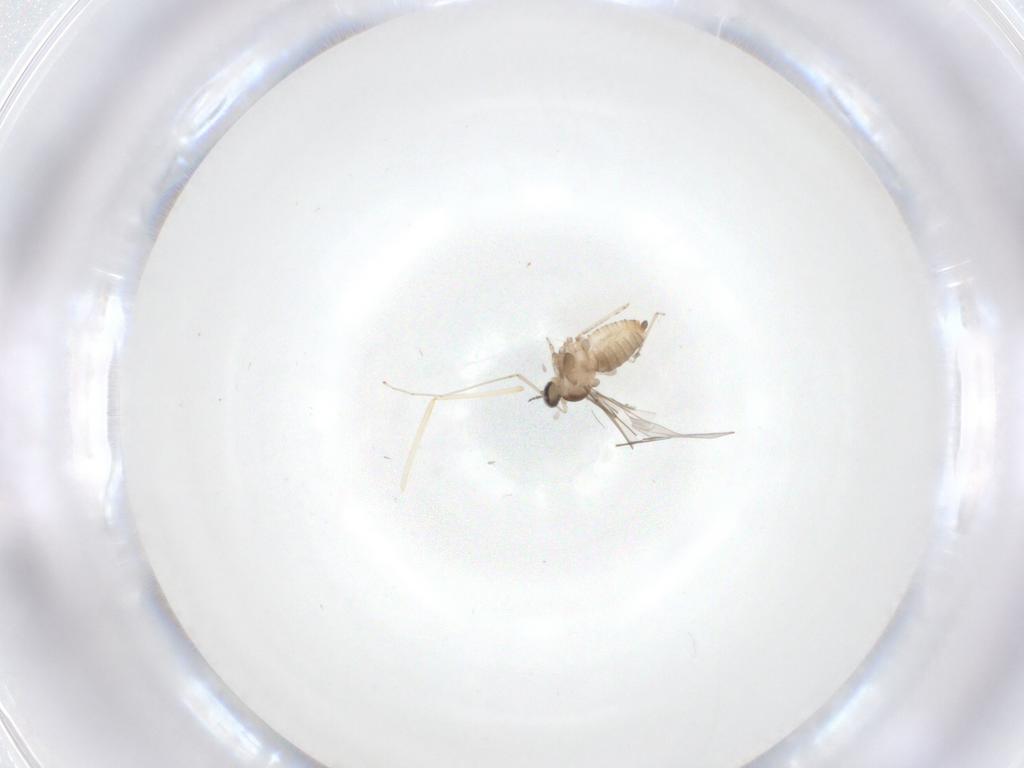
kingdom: Animalia
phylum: Arthropoda
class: Insecta
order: Diptera
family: Cecidomyiidae
